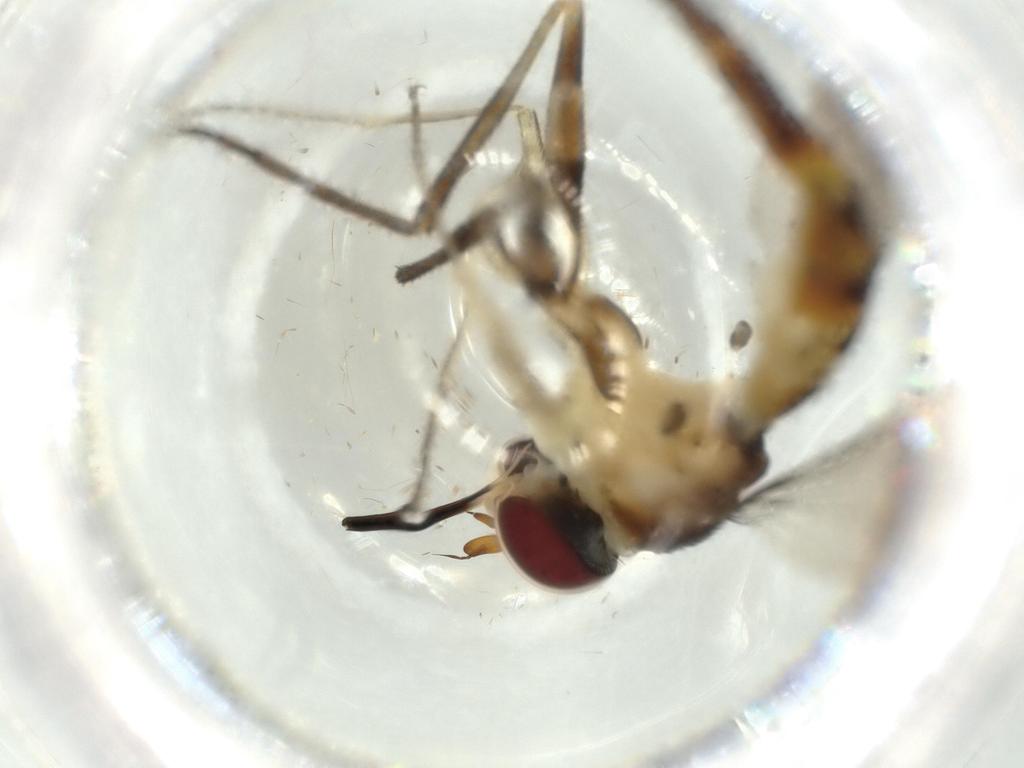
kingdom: Animalia
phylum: Arthropoda
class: Insecta
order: Diptera
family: Conopidae
